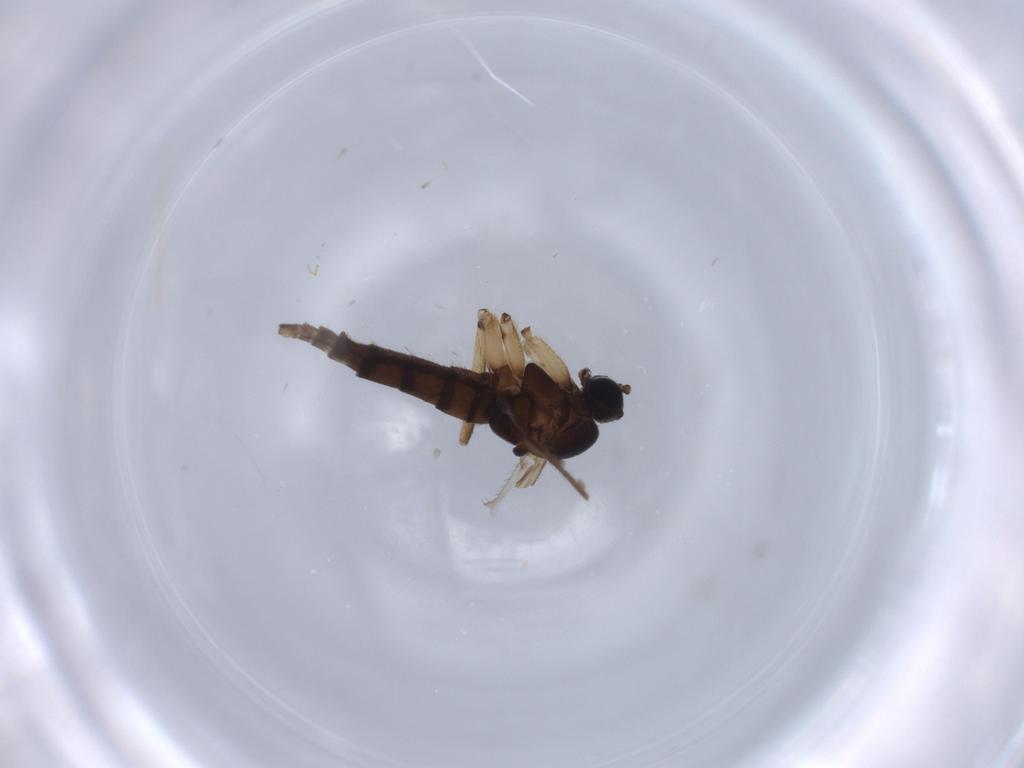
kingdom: Animalia
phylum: Arthropoda
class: Insecta
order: Diptera
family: Sciaridae
